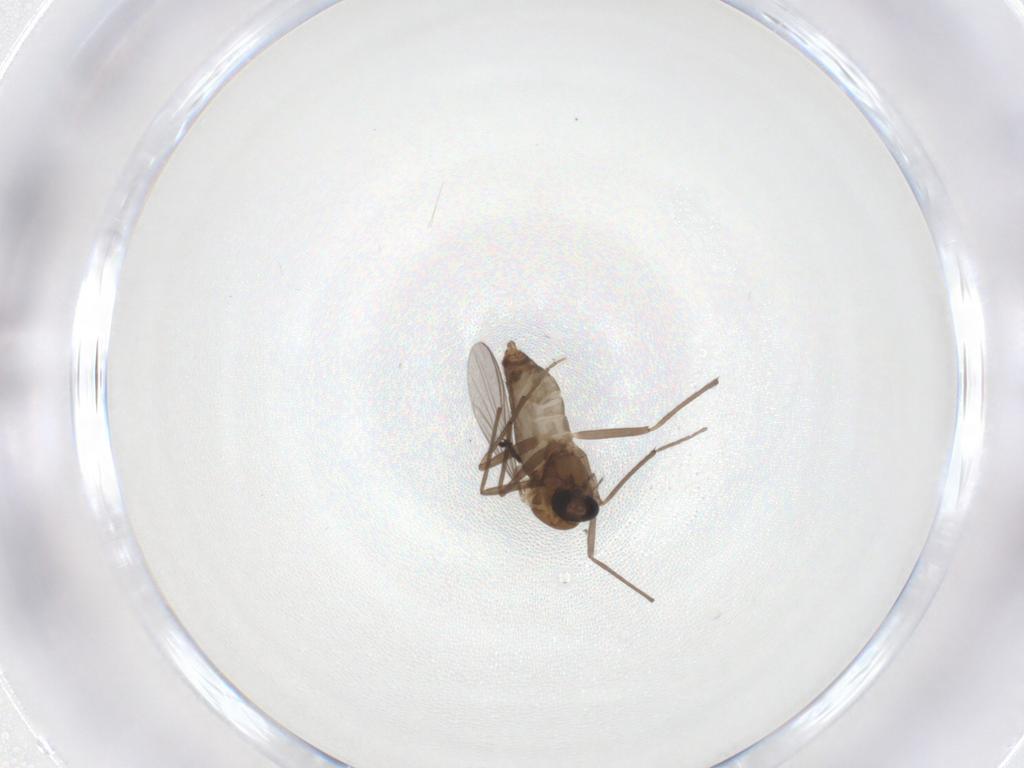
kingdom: Animalia
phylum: Arthropoda
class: Insecta
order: Diptera
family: Chironomidae
